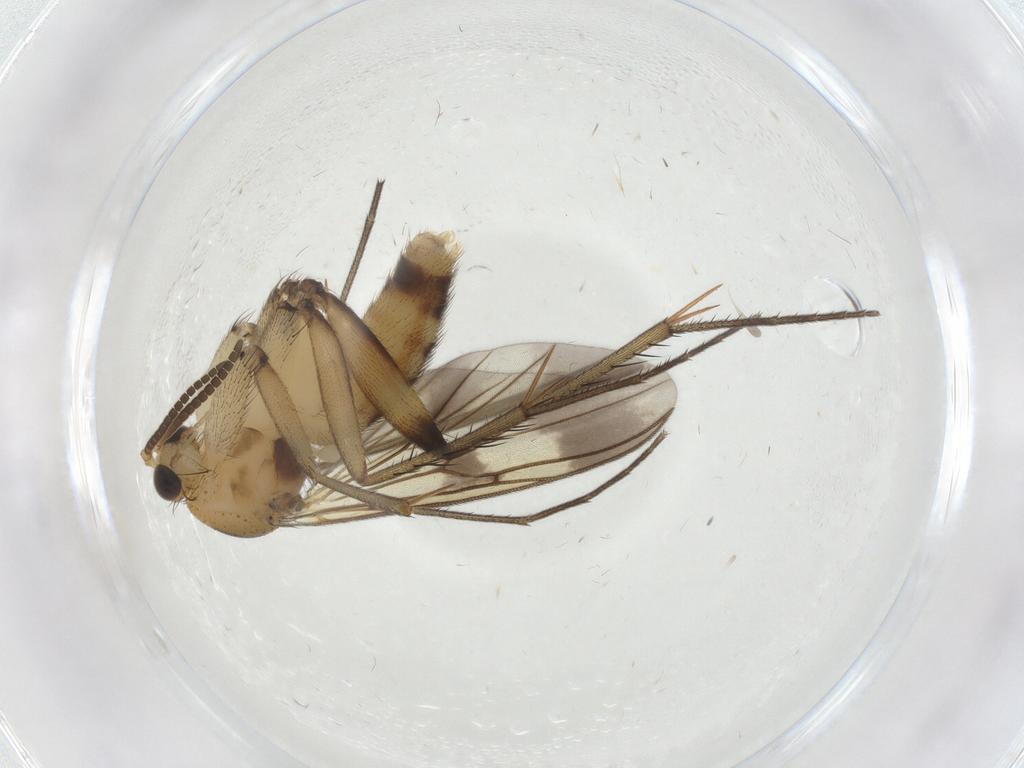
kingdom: Animalia
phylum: Arthropoda
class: Insecta
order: Diptera
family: Mycetophilidae
